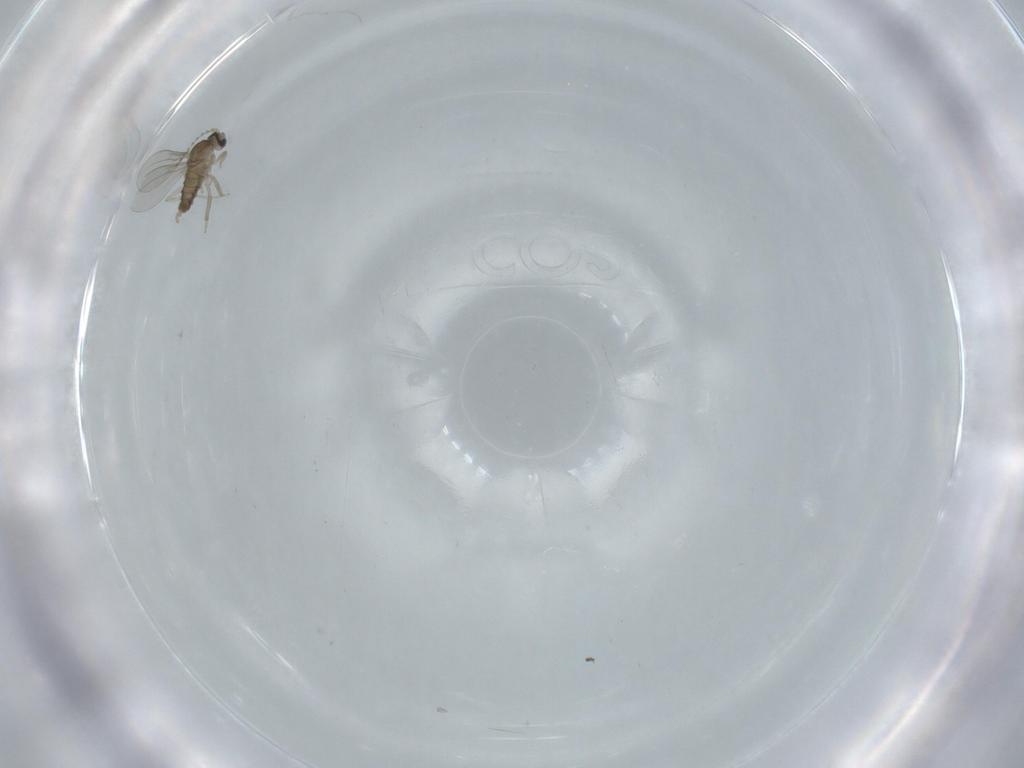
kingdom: Animalia
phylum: Arthropoda
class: Insecta
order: Diptera
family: Cecidomyiidae
